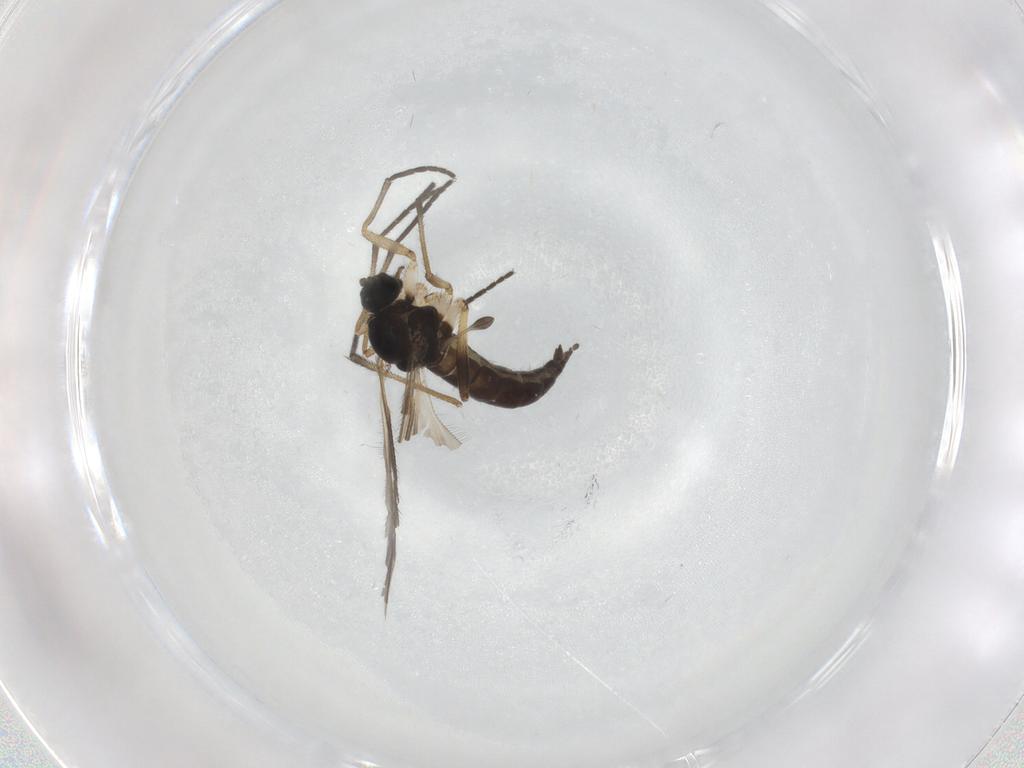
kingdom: Animalia
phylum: Arthropoda
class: Insecta
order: Diptera
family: Sciaridae
